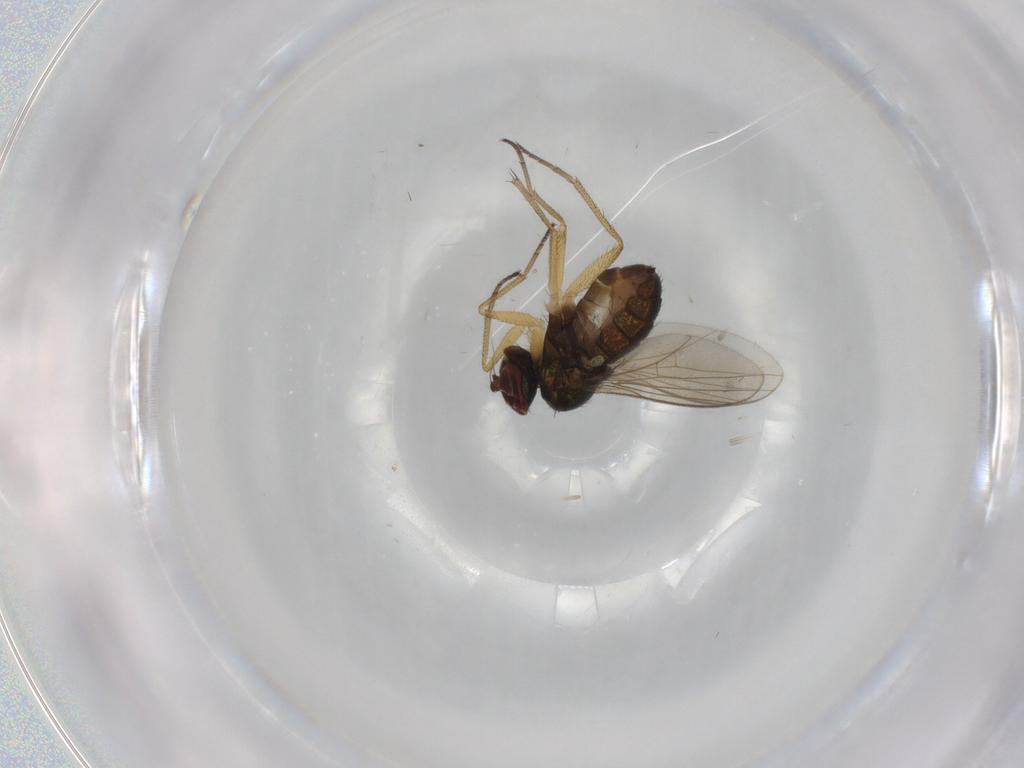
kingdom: Animalia
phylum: Arthropoda
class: Insecta
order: Diptera
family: Dolichopodidae
